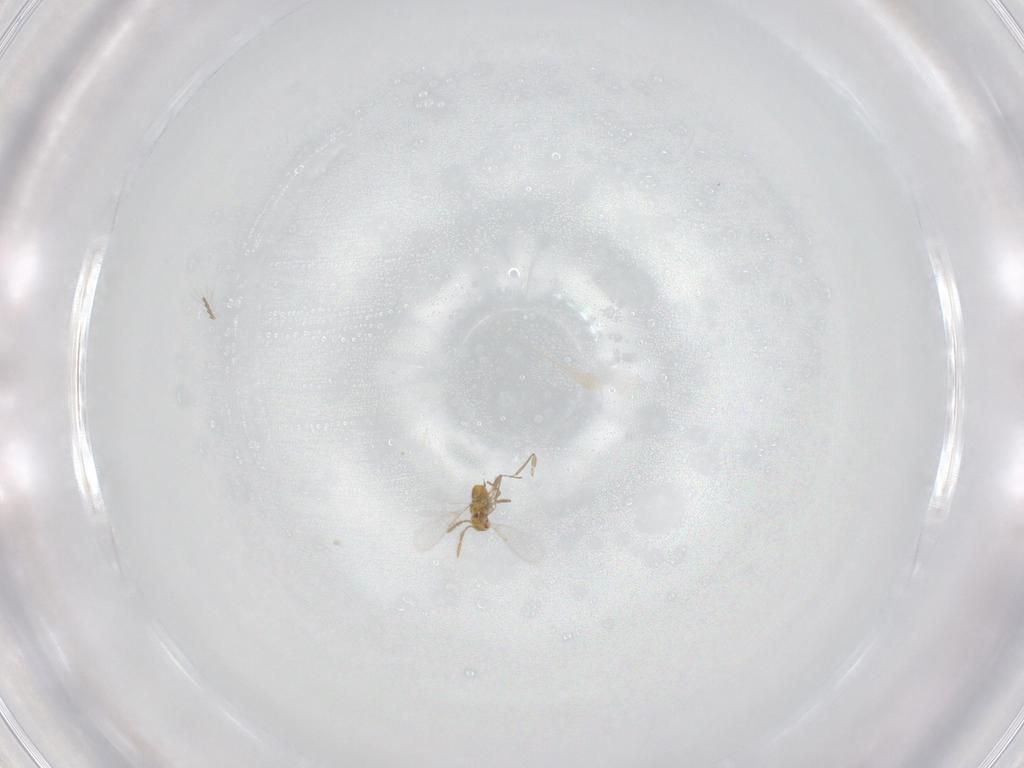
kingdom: Animalia
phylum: Arthropoda
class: Insecta
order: Hymenoptera
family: Aphelinidae
